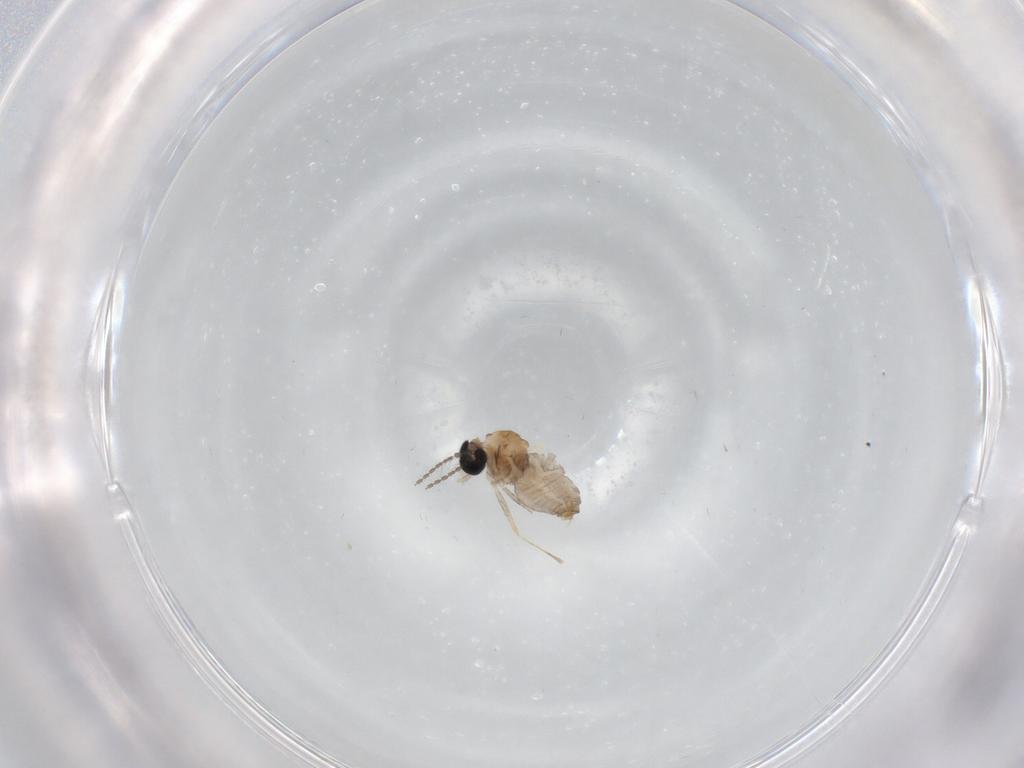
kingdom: Animalia
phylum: Arthropoda
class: Insecta
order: Diptera
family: Cecidomyiidae
